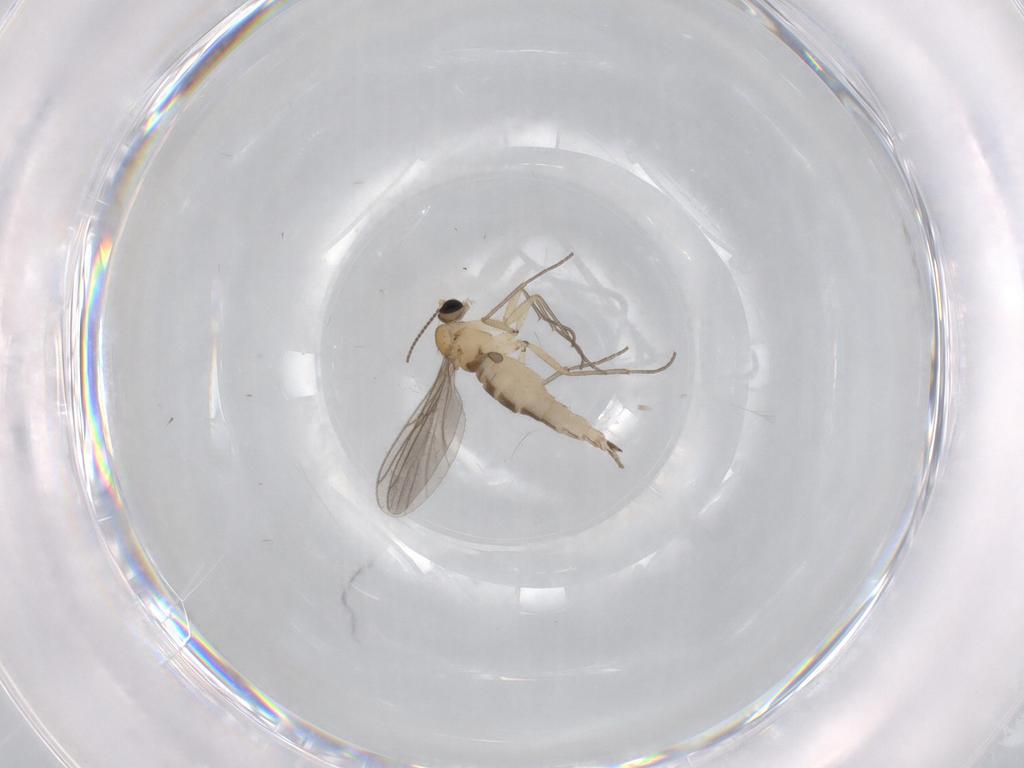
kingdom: Animalia
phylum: Arthropoda
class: Insecta
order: Diptera
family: Sciaridae
